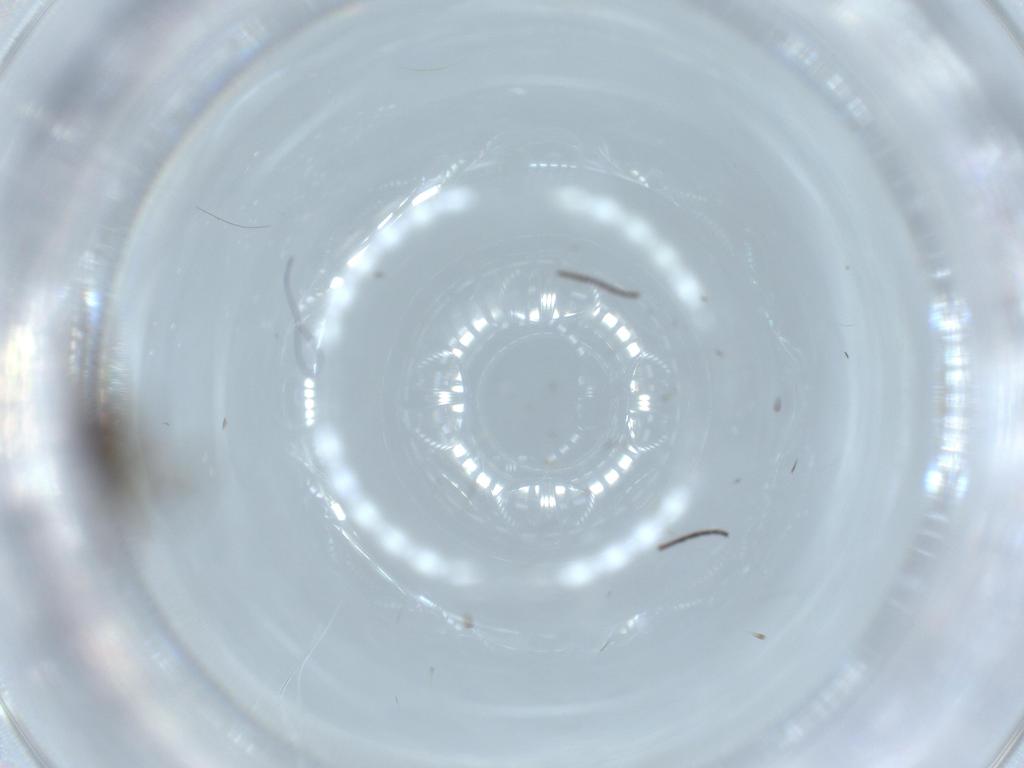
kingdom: Animalia
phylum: Arthropoda
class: Insecta
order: Diptera
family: Sciaridae
